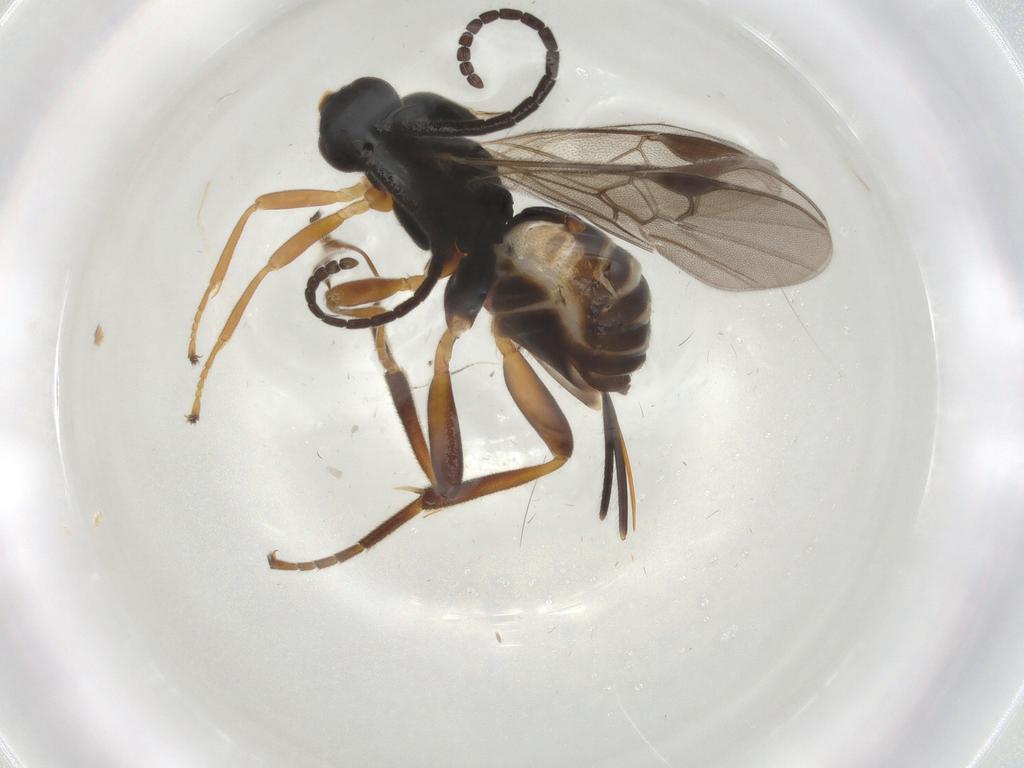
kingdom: Animalia
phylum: Arthropoda
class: Insecta
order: Hymenoptera
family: Braconidae
